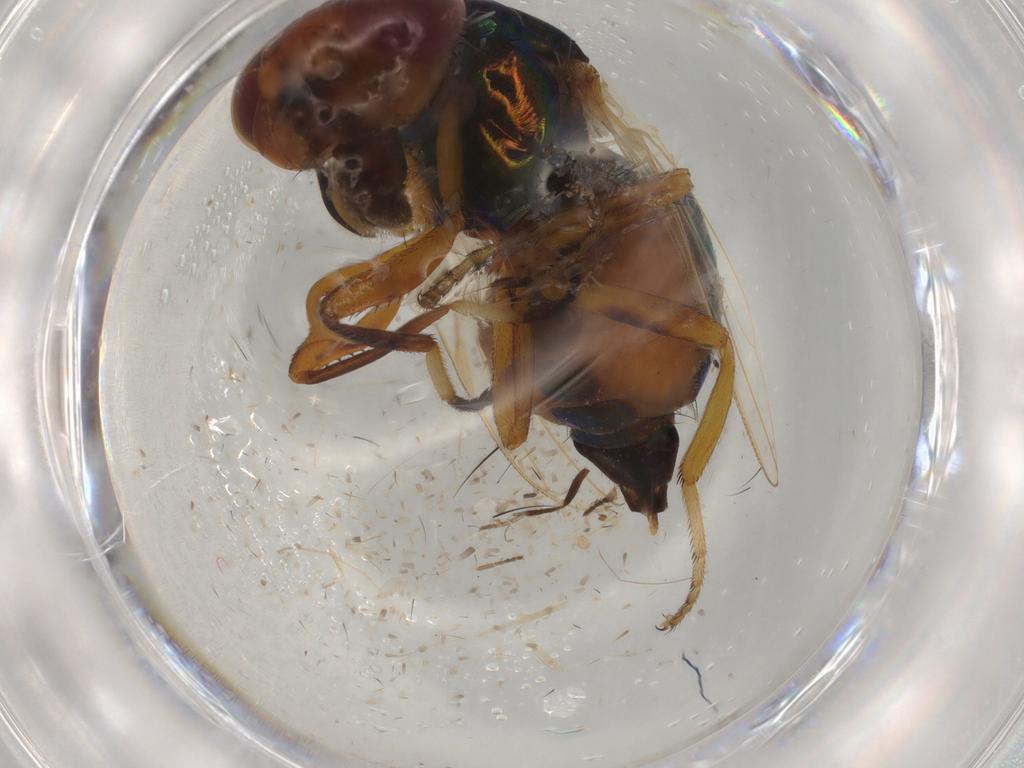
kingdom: Animalia
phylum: Arthropoda
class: Insecta
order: Diptera
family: Ulidiidae
